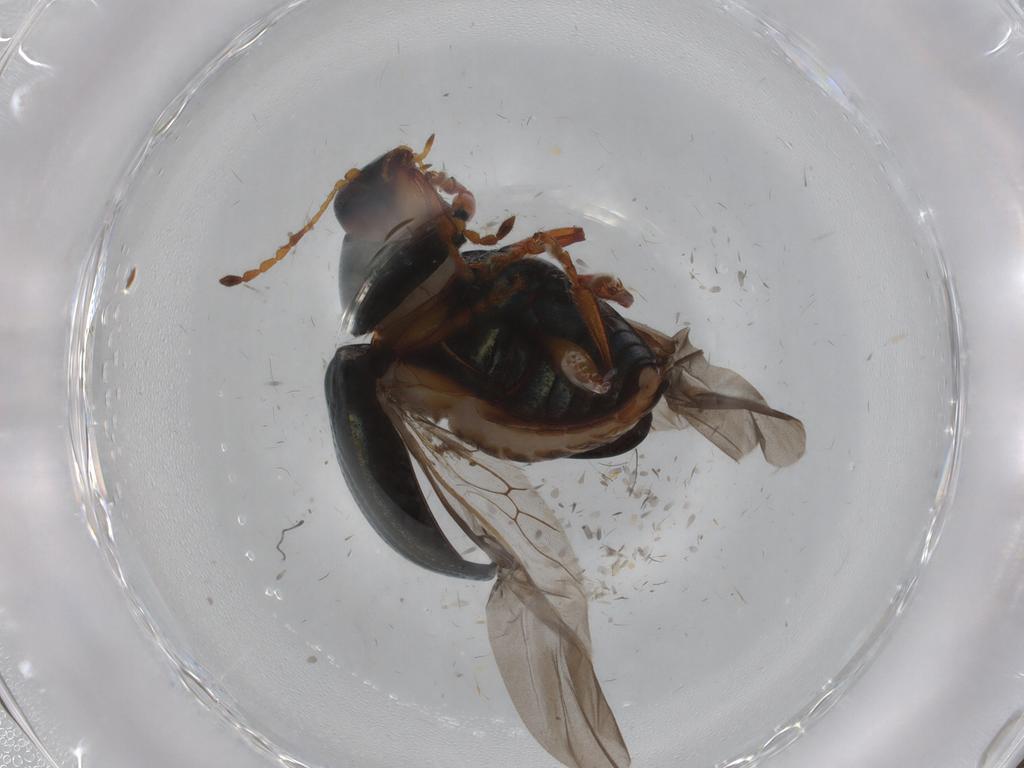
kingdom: Animalia
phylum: Arthropoda
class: Insecta
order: Coleoptera
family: Chrysomelidae
